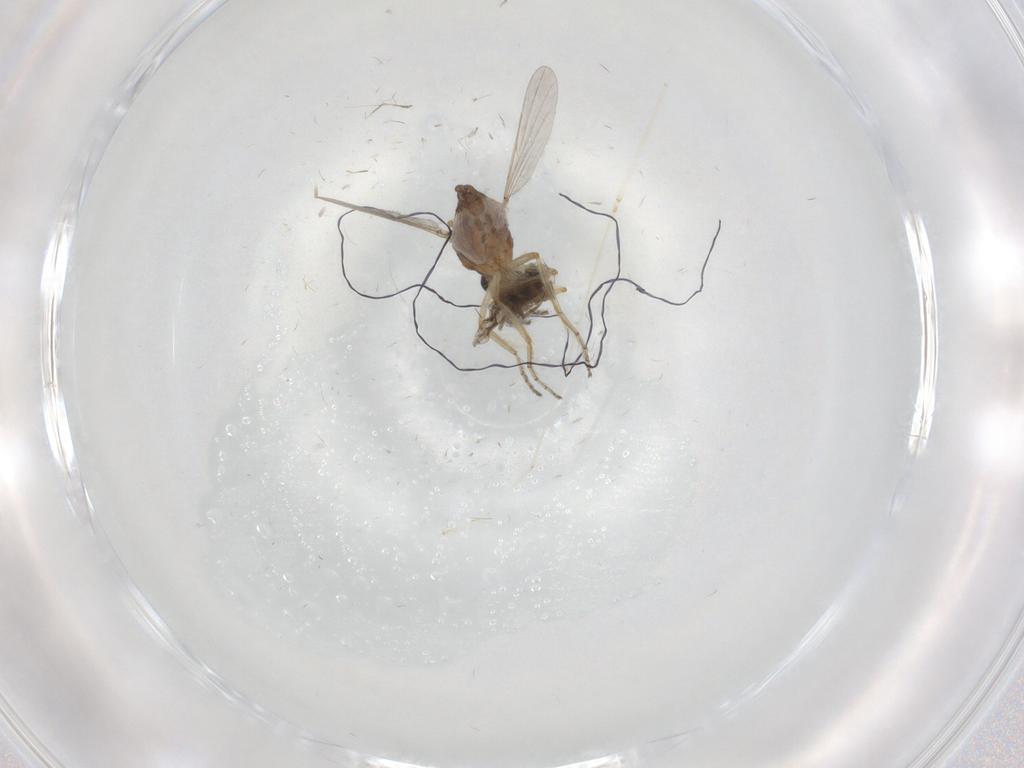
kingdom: Animalia
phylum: Arthropoda
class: Insecta
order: Diptera
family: Ceratopogonidae
